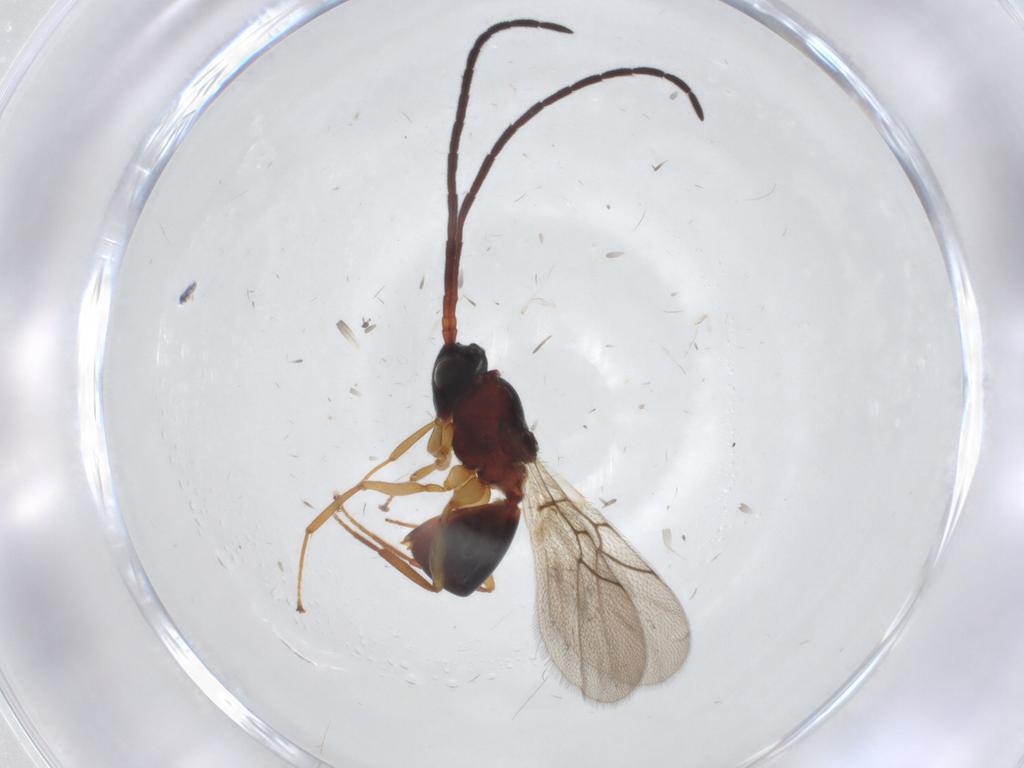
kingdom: Animalia
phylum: Arthropoda
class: Insecta
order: Hymenoptera
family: Figitidae
